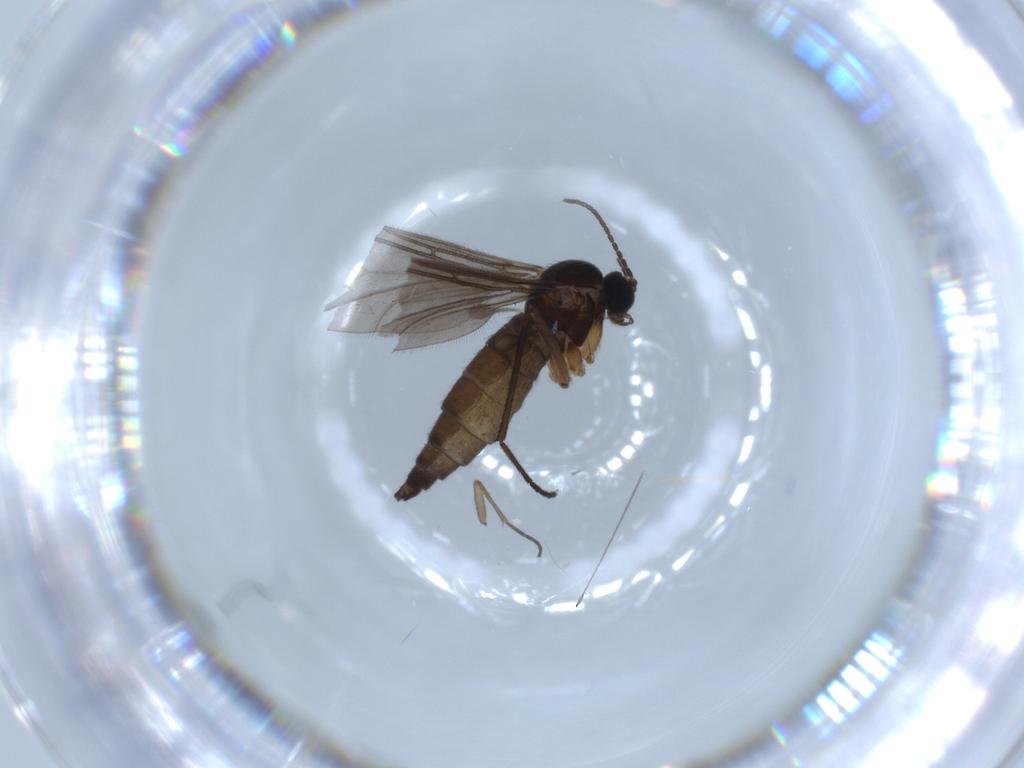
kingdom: Animalia
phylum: Arthropoda
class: Insecta
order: Diptera
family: Sciaridae
